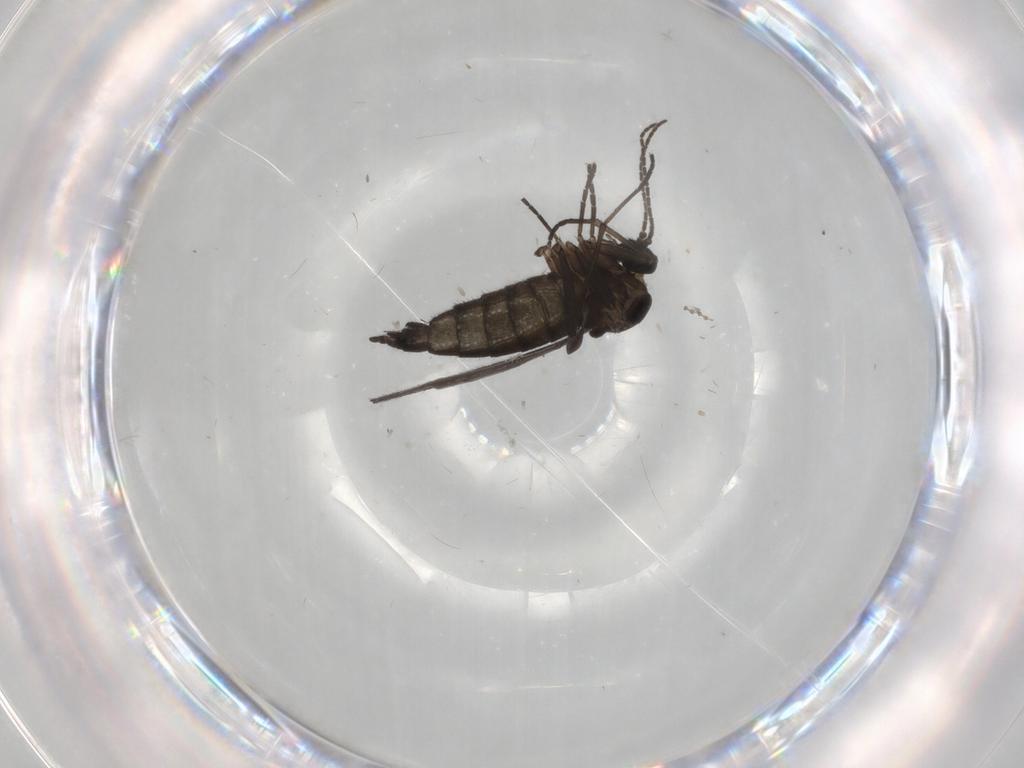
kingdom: Animalia
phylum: Arthropoda
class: Insecta
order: Diptera
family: Sciaridae
